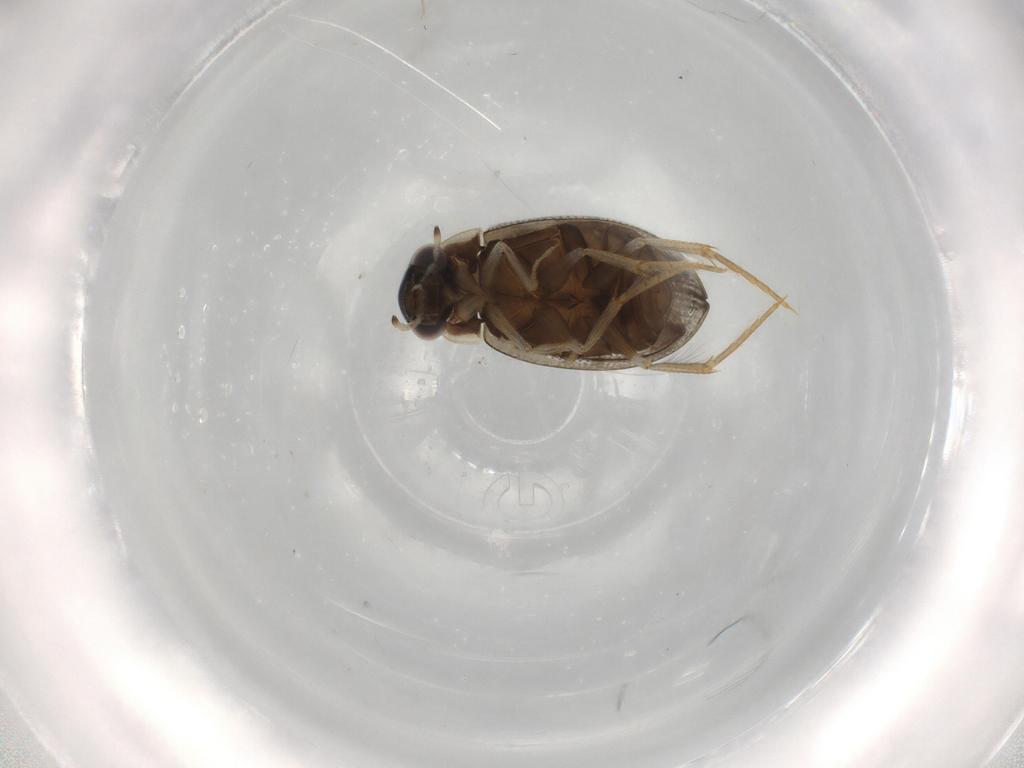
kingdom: Animalia
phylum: Arthropoda
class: Insecta
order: Coleoptera
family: Hydrophilidae
